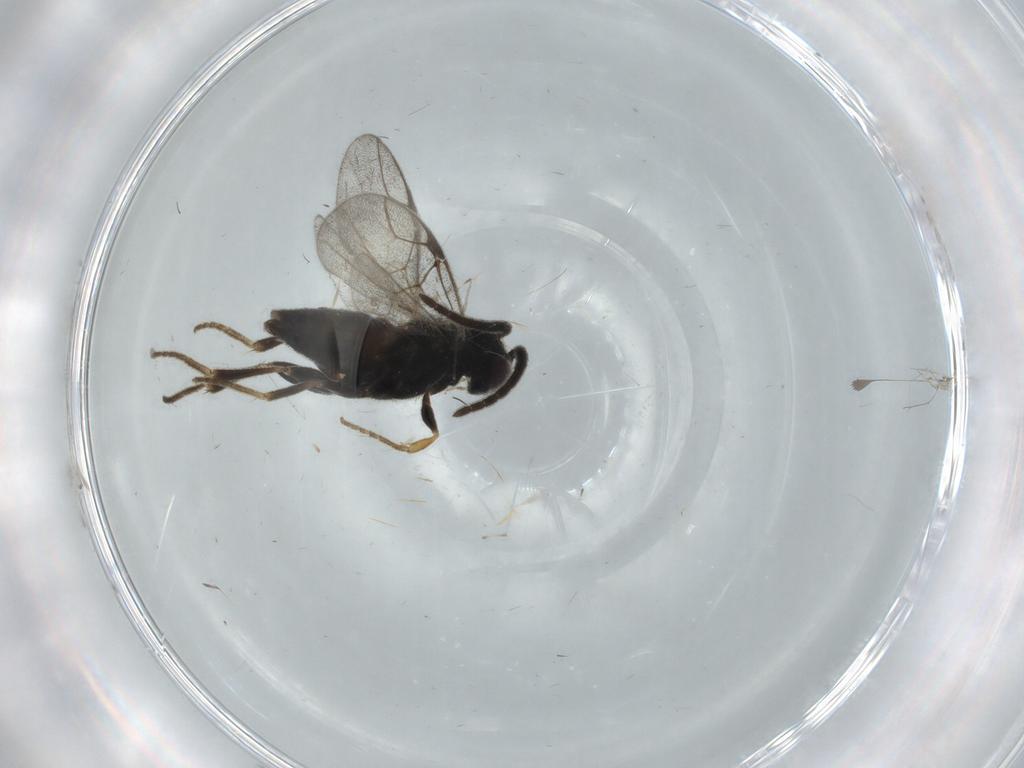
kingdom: Animalia
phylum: Arthropoda
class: Insecta
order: Hymenoptera
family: Dryinidae
